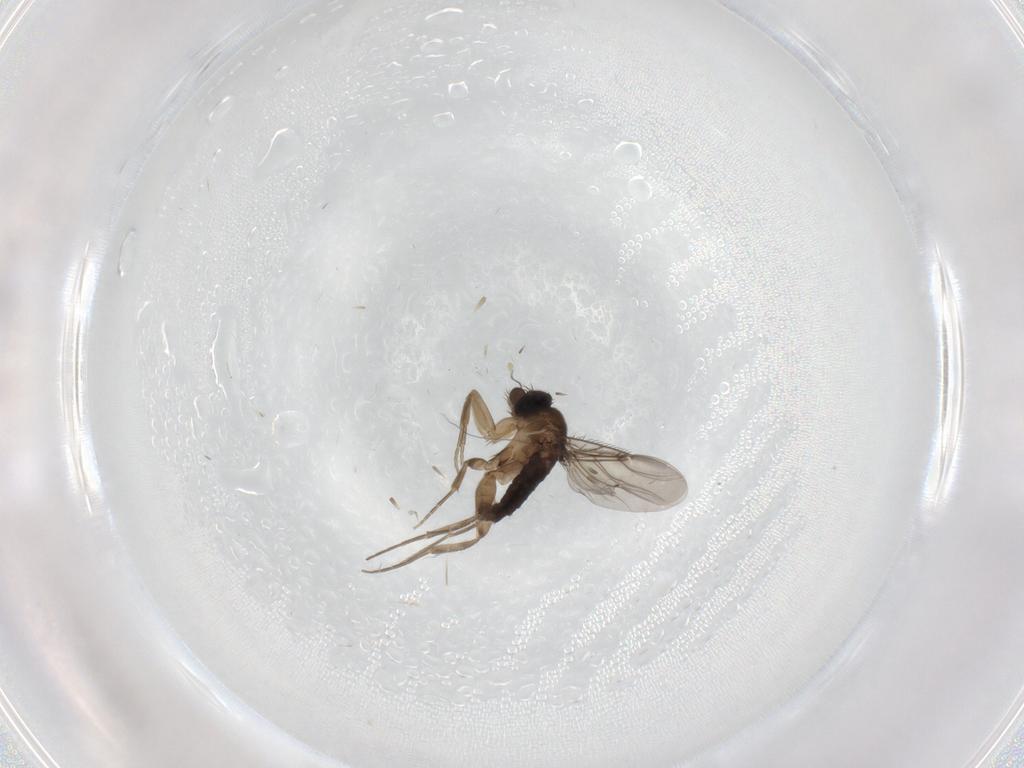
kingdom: Animalia
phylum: Arthropoda
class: Insecta
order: Diptera
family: Phoridae
